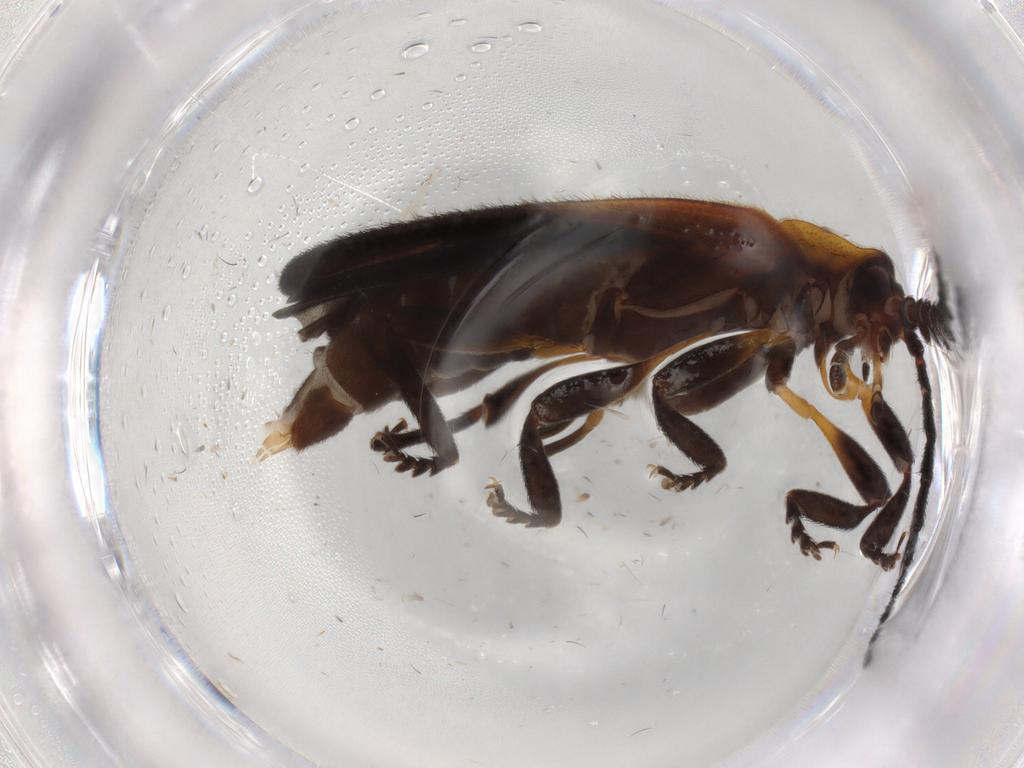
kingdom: Animalia
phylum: Arthropoda
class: Insecta
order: Coleoptera
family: Lycidae
